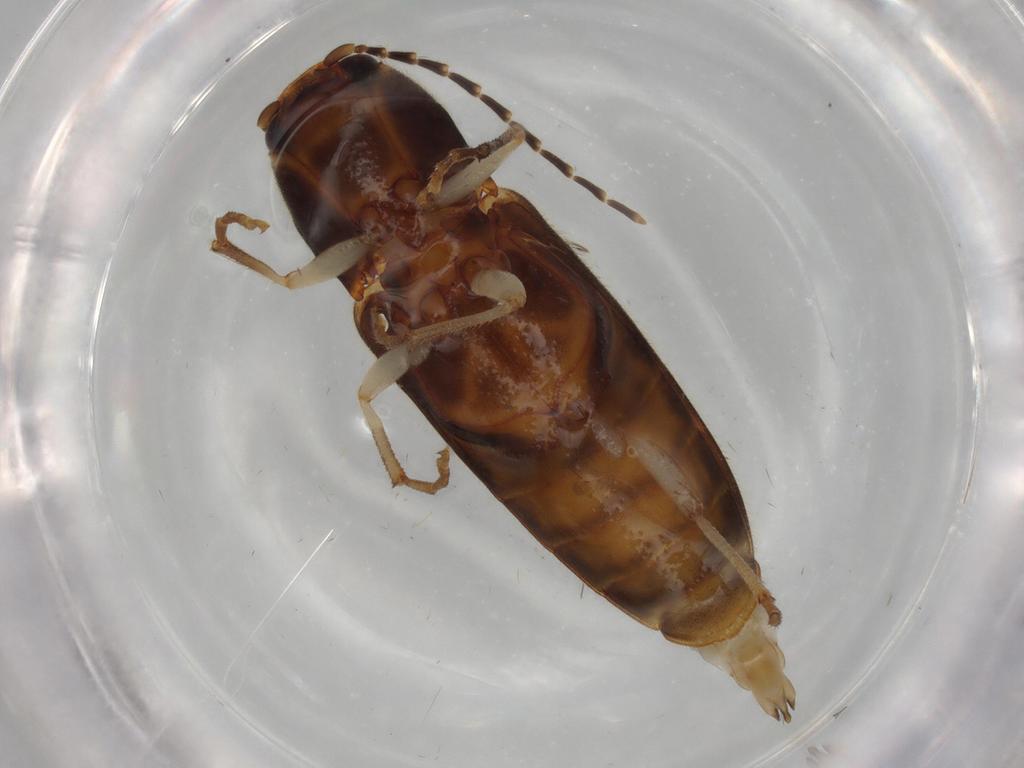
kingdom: Animalia
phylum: Arthropoda
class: Insecta
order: Coleoptera
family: Elateridae
